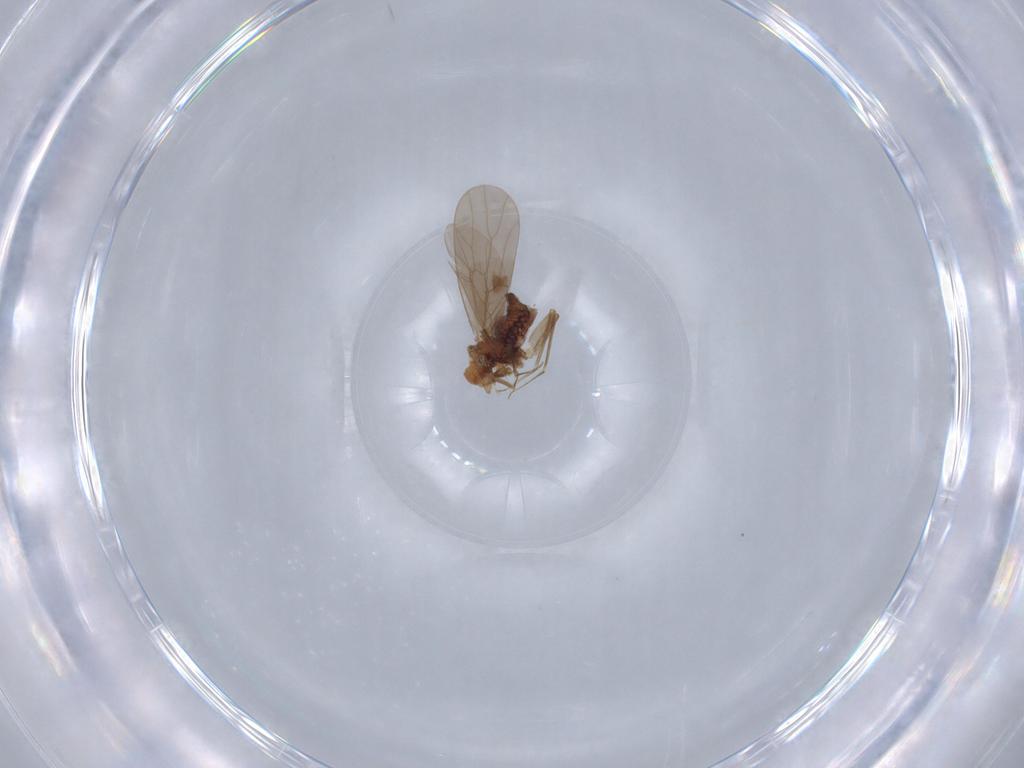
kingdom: Animalia
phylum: Arthropoda
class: Insecta
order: Psocodea
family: Lepidopsocidae
